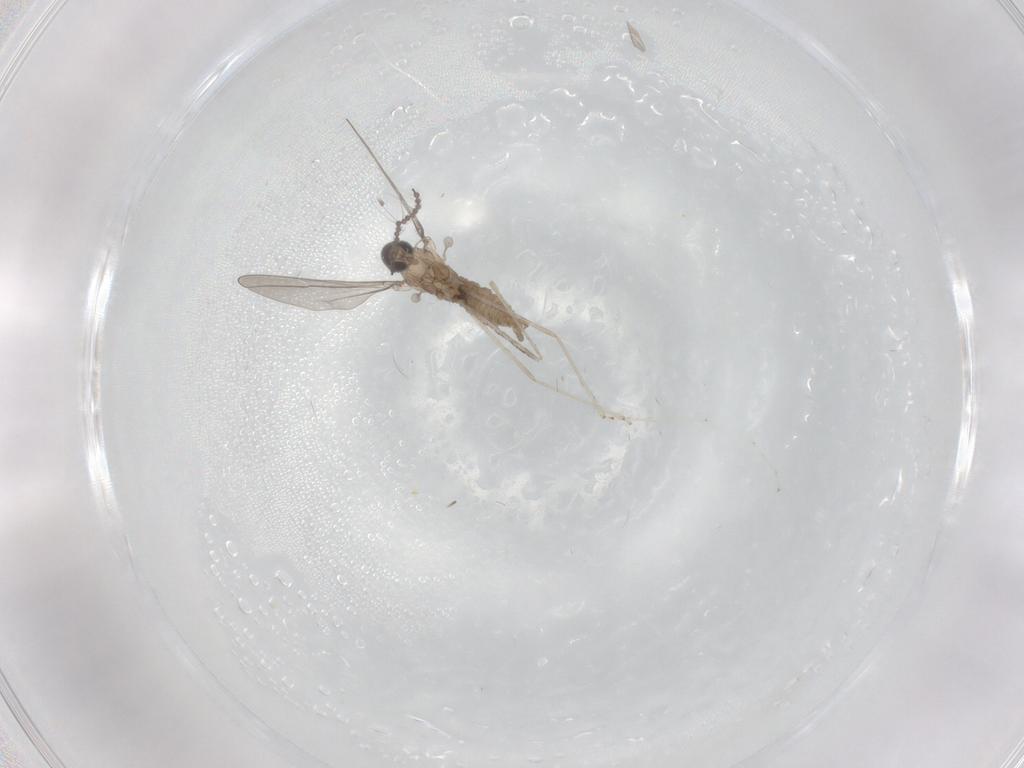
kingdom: Animalia
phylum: Arthropoda
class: Insecta
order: Diptera
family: Cecidomyiidae
